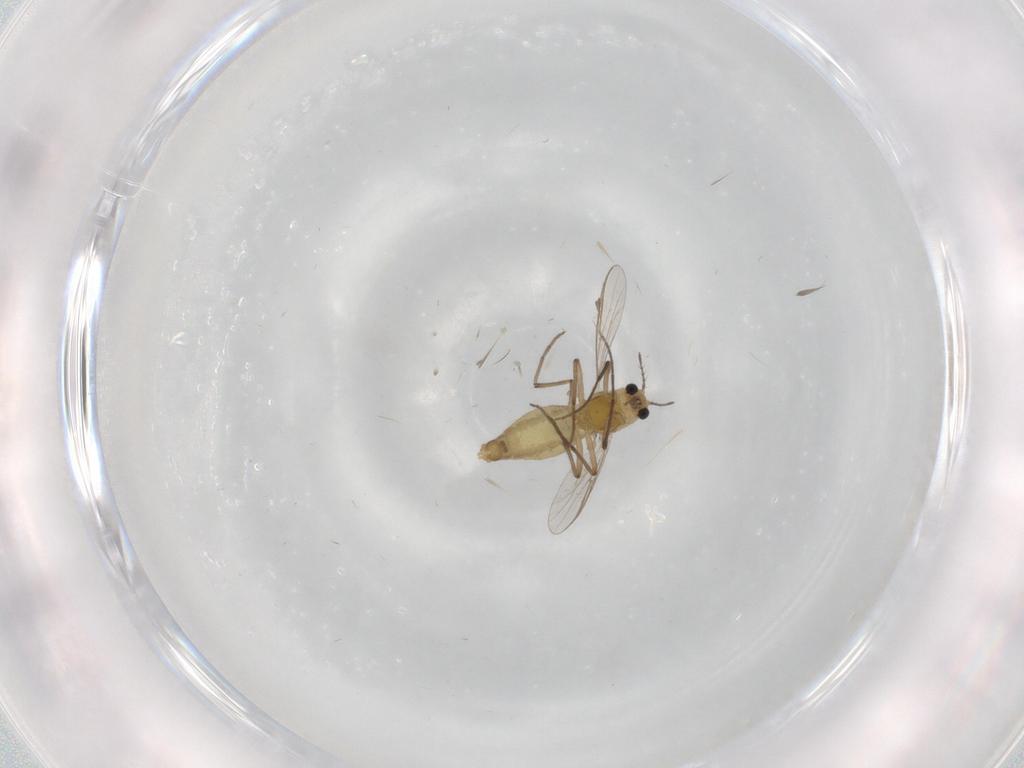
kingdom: Animalia
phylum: Arthropoda
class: Insecta
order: Diptera
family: Chironomidae
